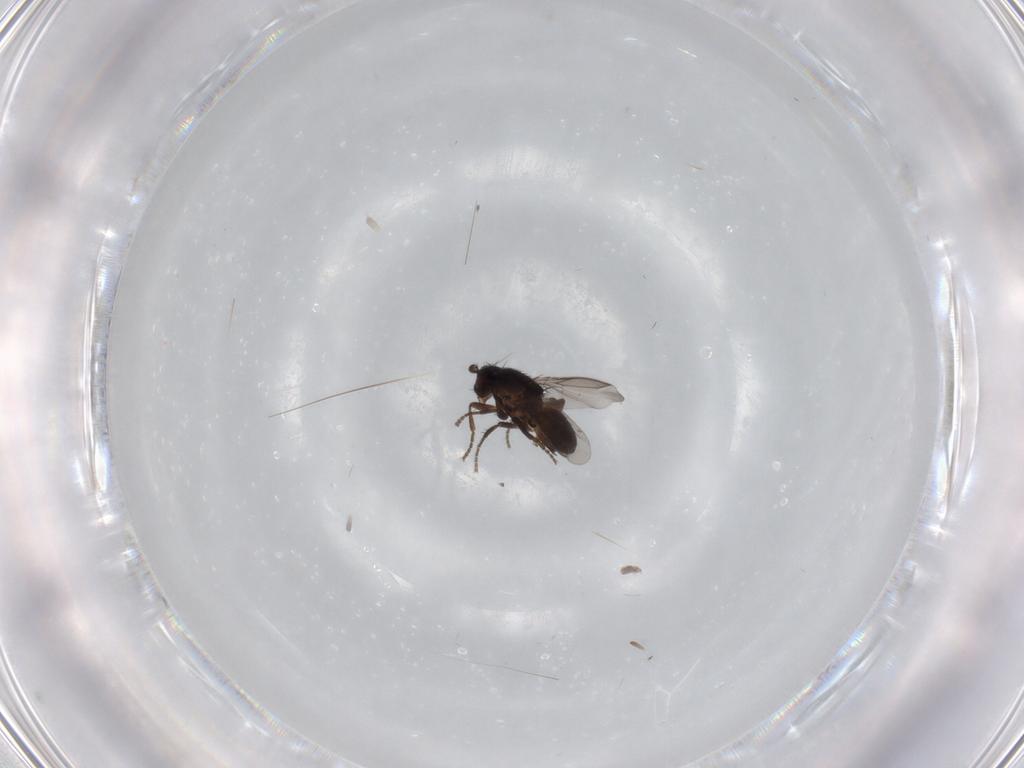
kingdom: Animalia
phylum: Arthropoda
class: Insecta
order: Diptera
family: Sphaeroceridae
